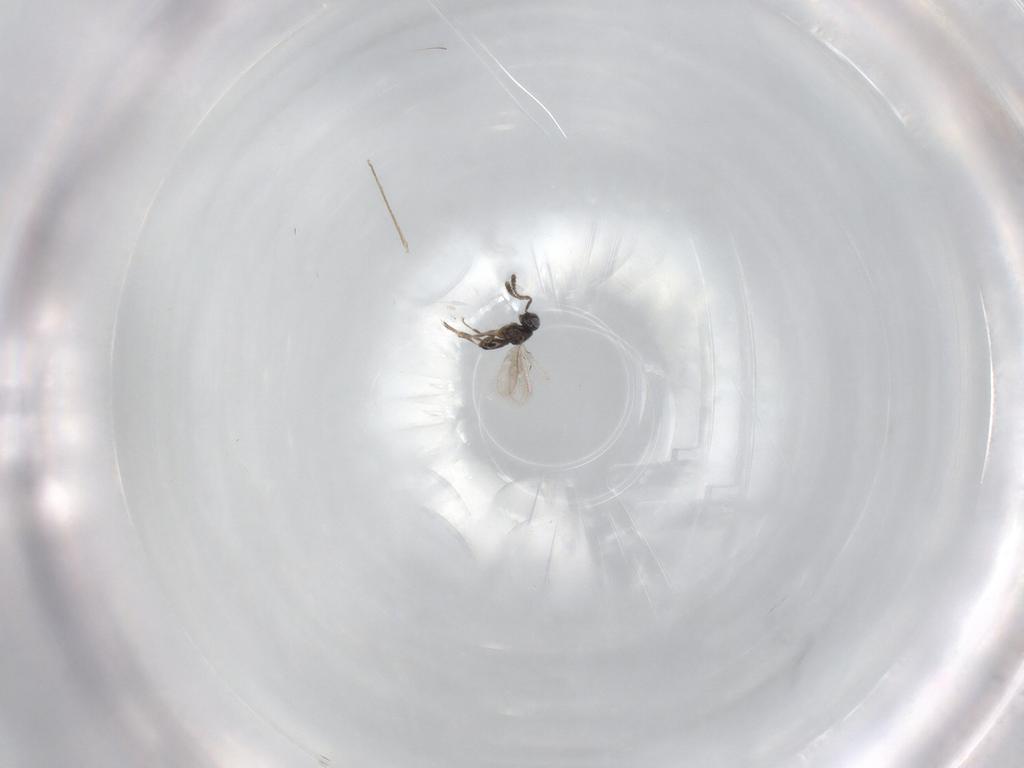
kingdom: Animalia
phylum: Arthropoda
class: Insecta
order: Hymenoptera
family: Scelionidae
